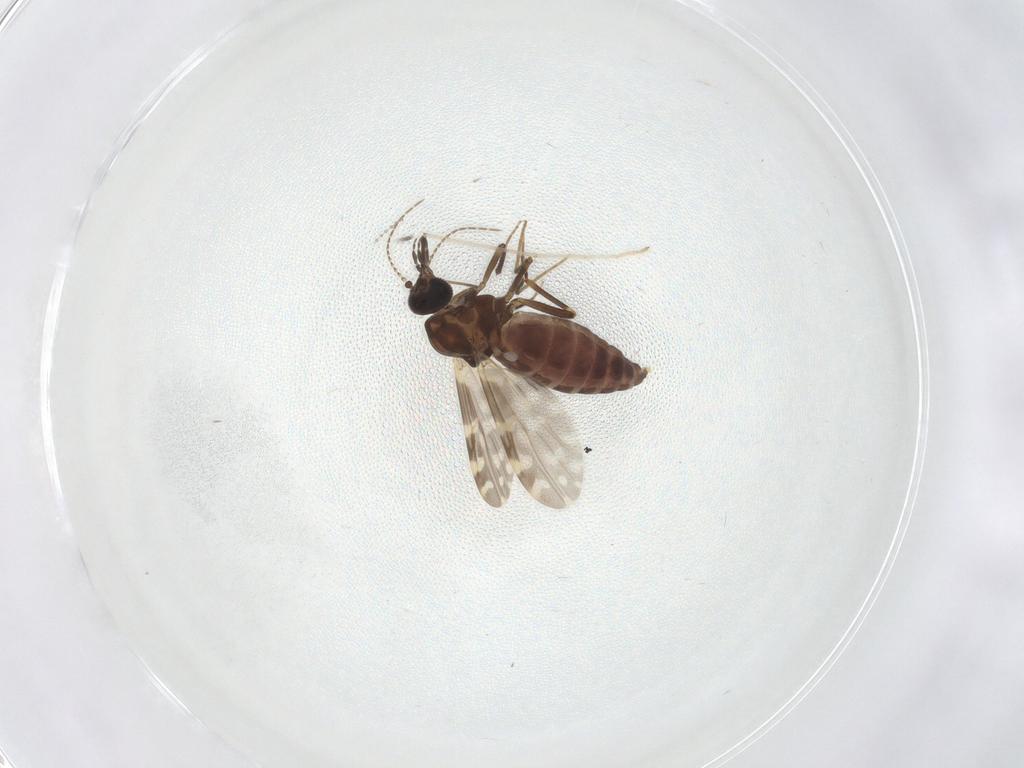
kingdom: Animalia
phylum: Arthropoda
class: Insecta
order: Diptera
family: Ceratopogonidae
